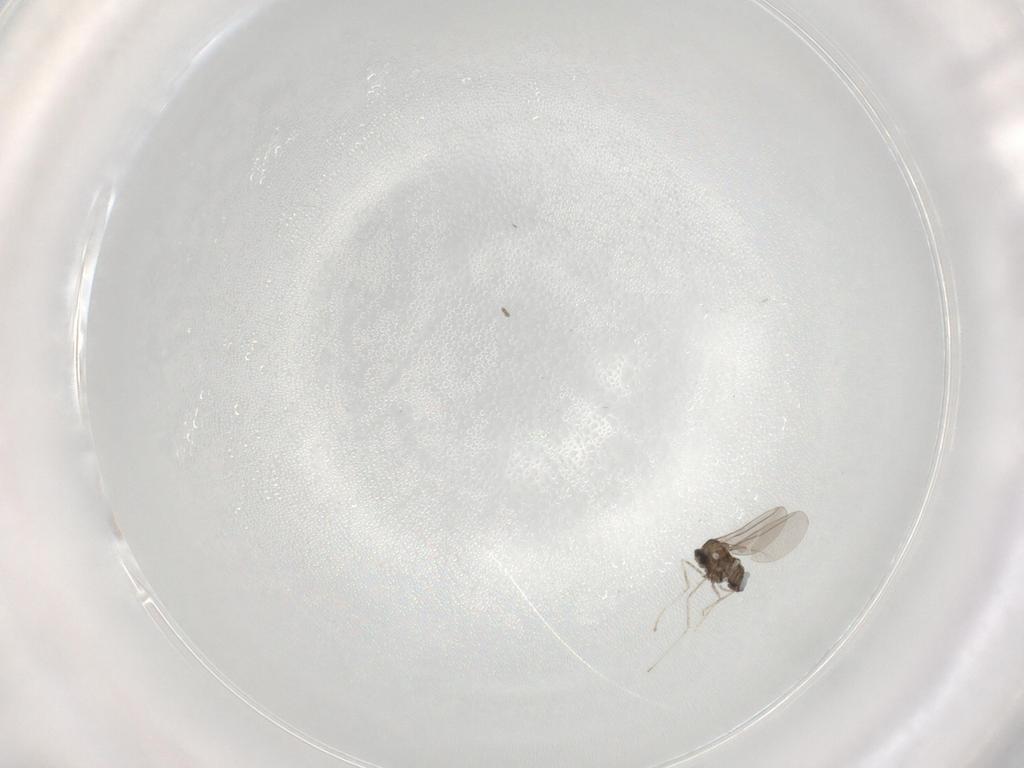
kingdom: Animalia
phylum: Arthropoda
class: Insecta
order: Diptera
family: Cecidomyiidae
